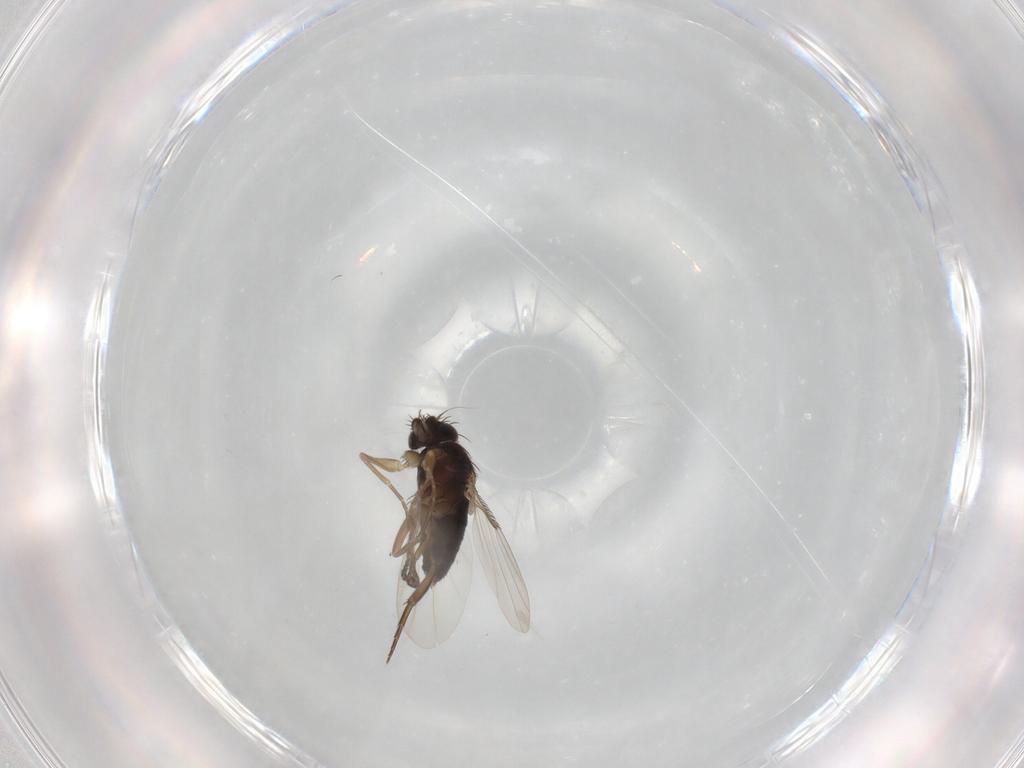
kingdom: Animalia
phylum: Arthropoda
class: Insecta
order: Diptera
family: Phoridae
